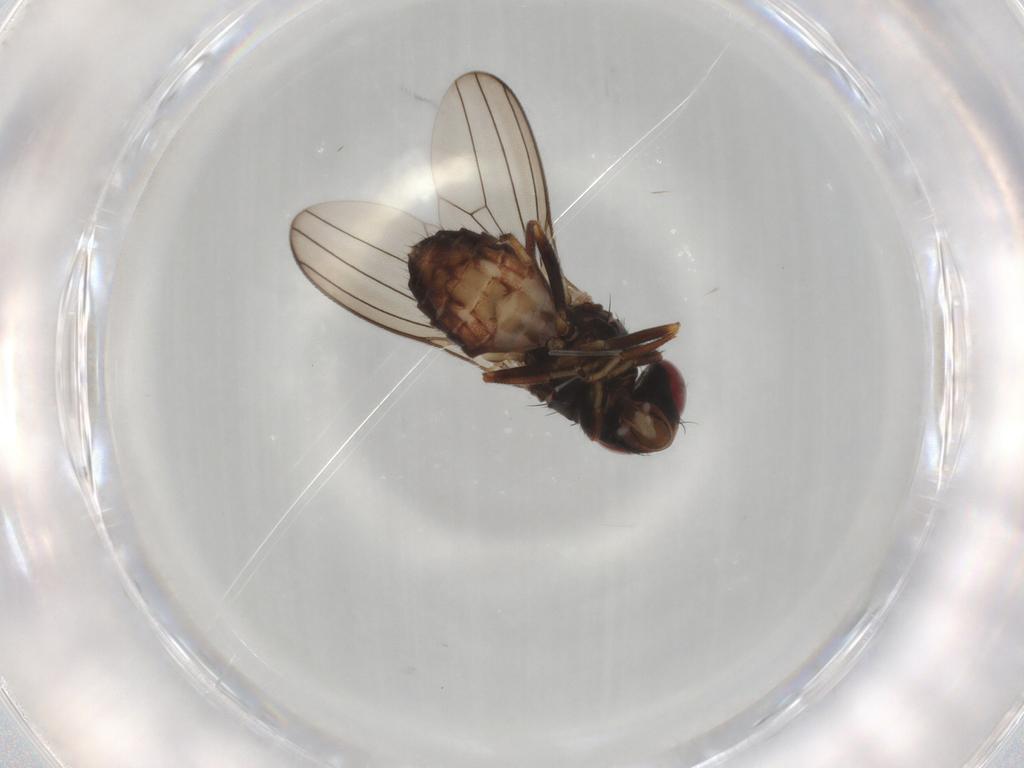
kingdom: Animalia
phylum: Arthropoda
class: Insecta
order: Diptera
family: Aulacigastridae
